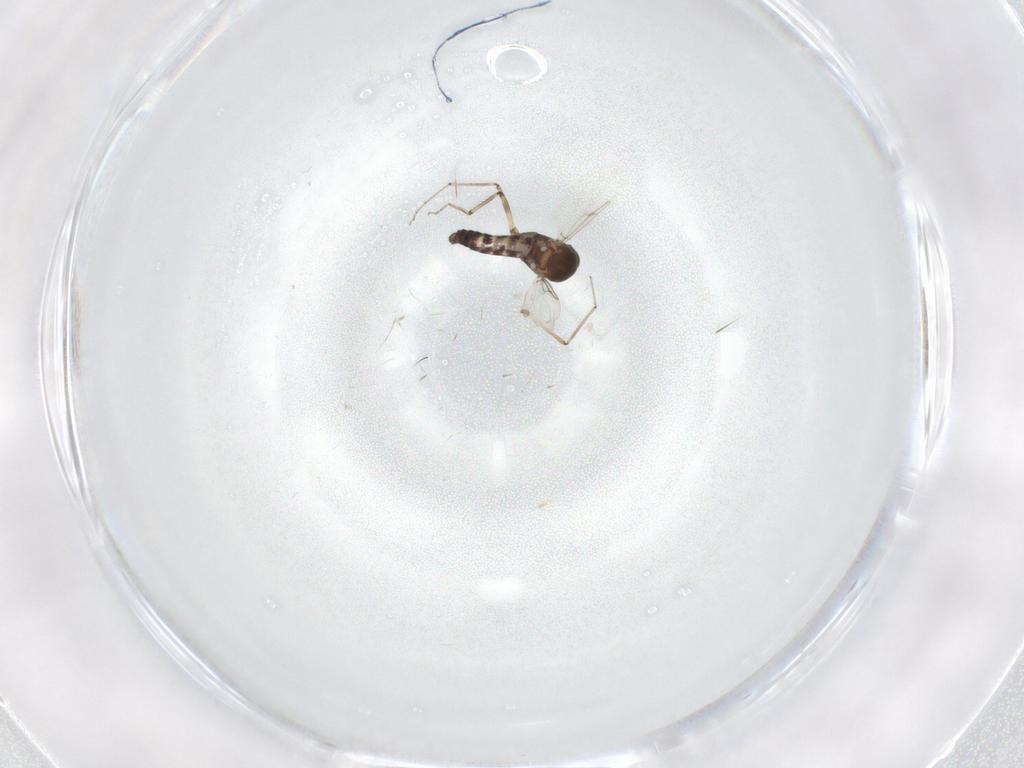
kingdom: Animalia
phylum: Arthropoda
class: Insecta
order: Diptera
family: Ceratopogonidae
